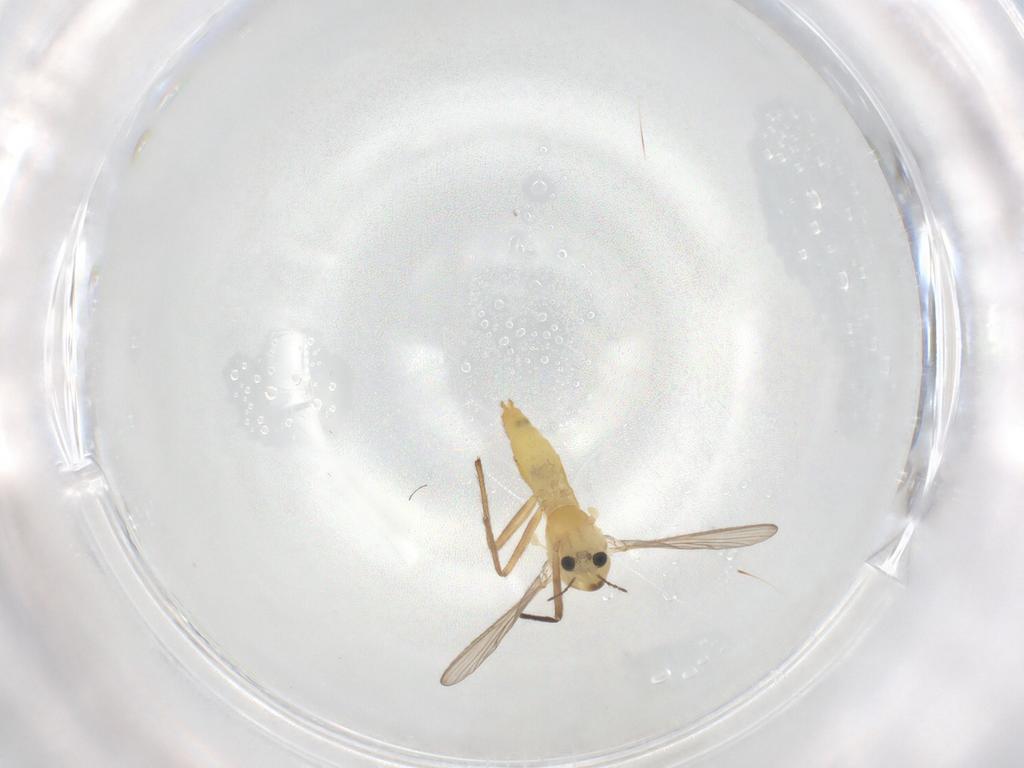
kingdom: Animalia
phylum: Arthropoda
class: Insecta
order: Diptera
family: Chironomidae
